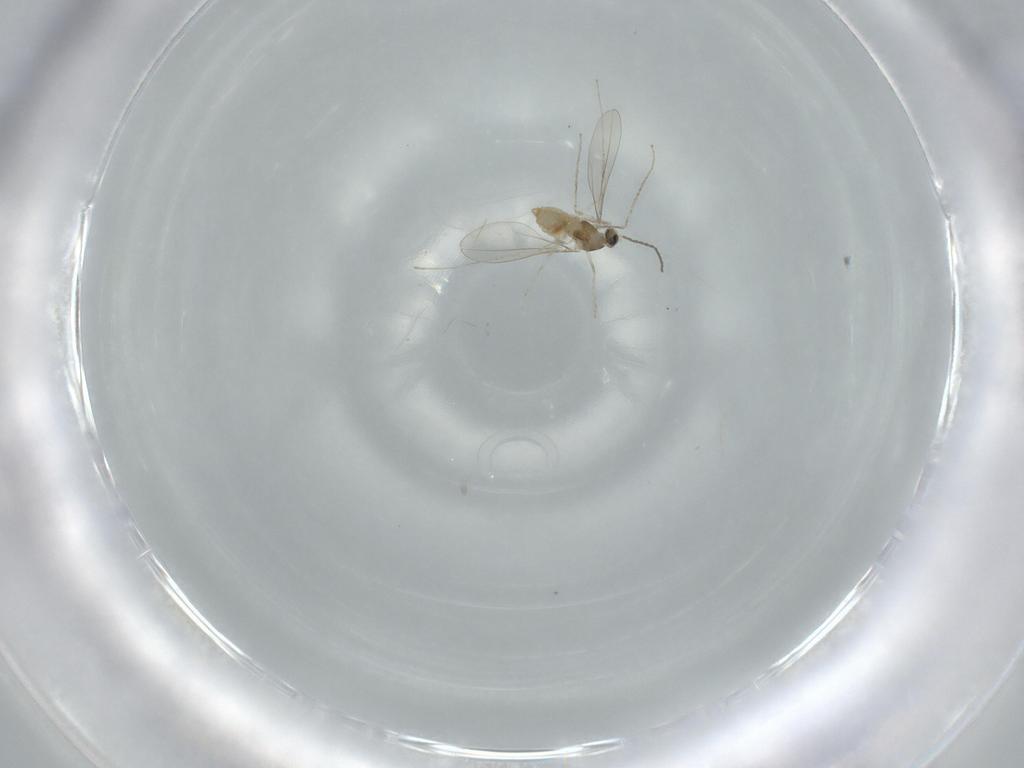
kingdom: Animalia
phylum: Arthropoda
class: Insecta
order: Diptera
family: Cecidomyiidae
